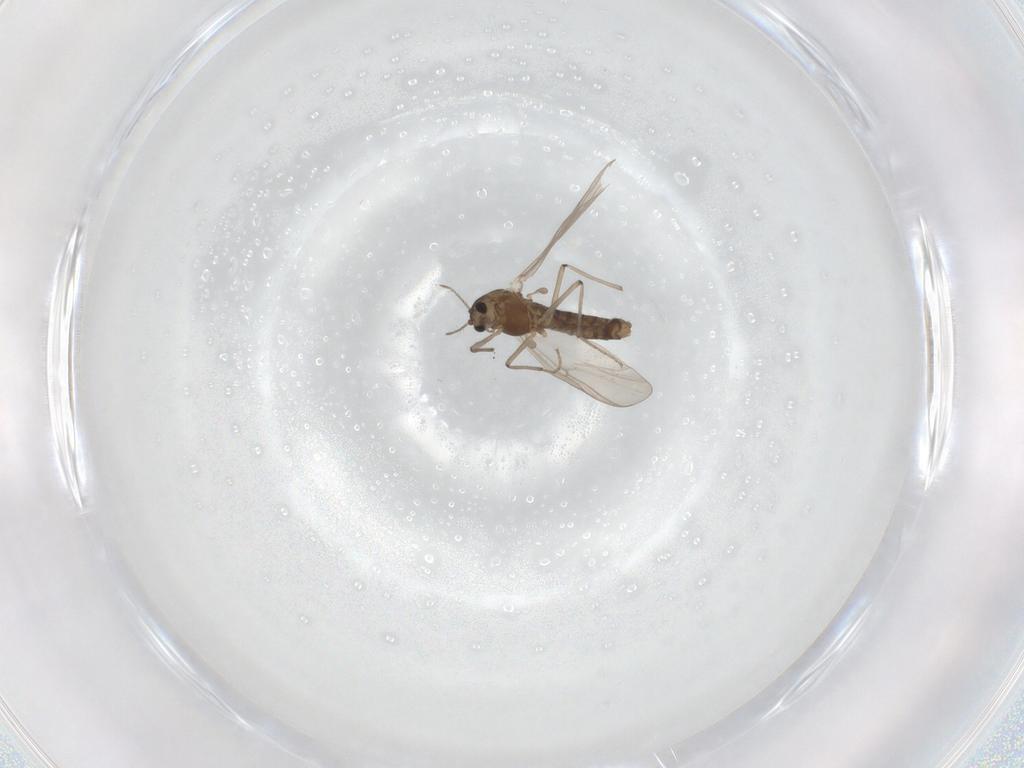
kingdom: Animalia
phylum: Arthropoda
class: Insecta
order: Diptera
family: Chironomidae
